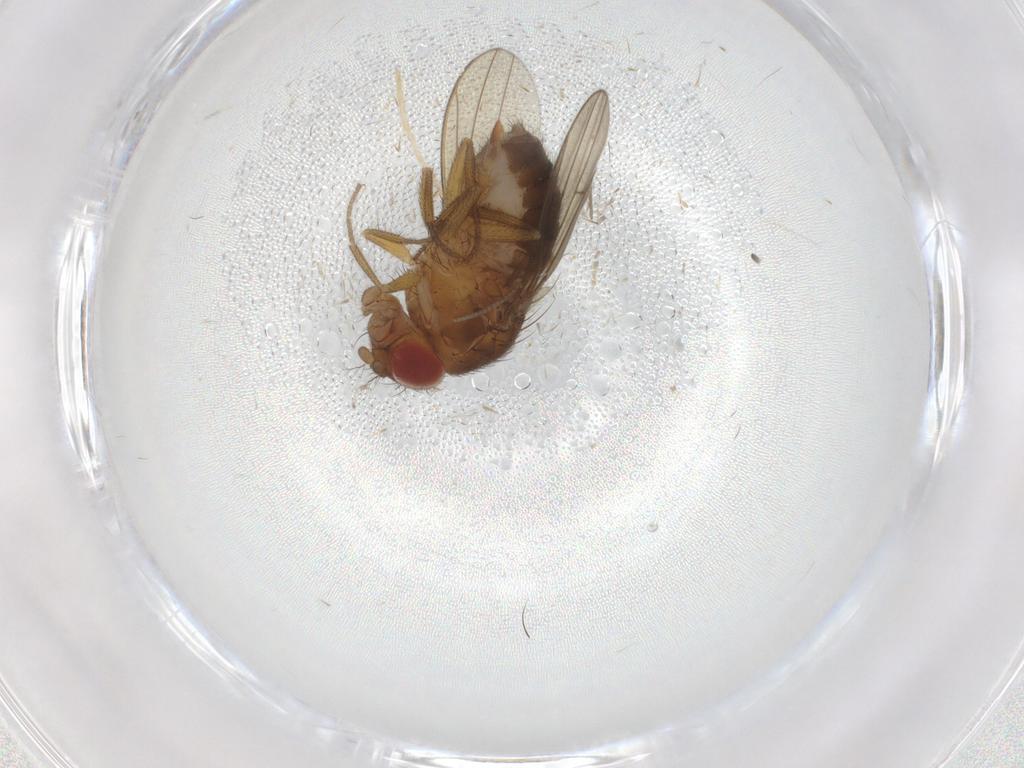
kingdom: Animalia
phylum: Arthropoda
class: Insecta
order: Diptera
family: Drosophilidae
